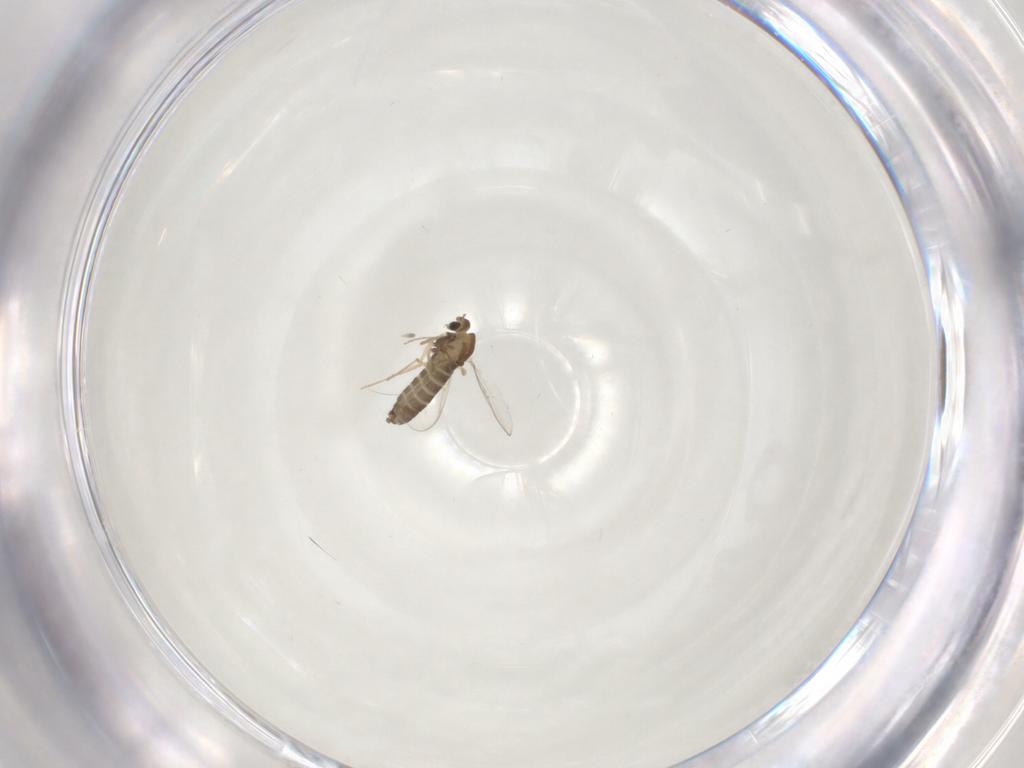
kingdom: Animalia
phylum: Arthropoda
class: Insecta
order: Diptera
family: Chironomidae
